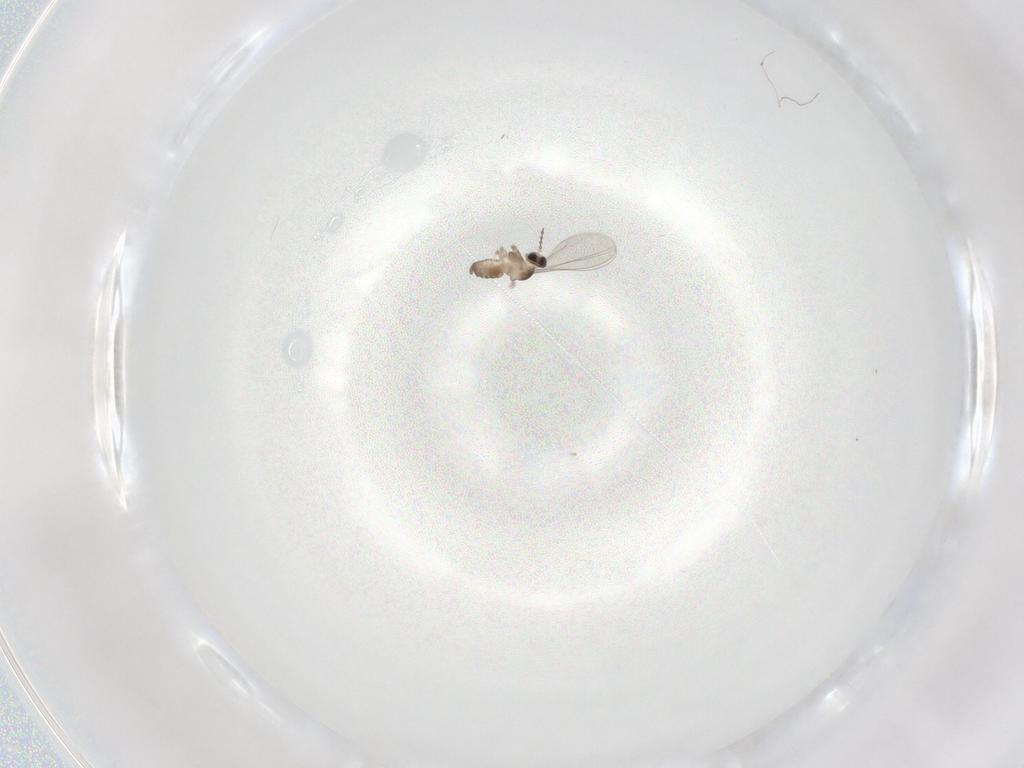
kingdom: Animalia
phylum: Arthropoda
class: Insecta
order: Diptera
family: Cecidomyiidae
